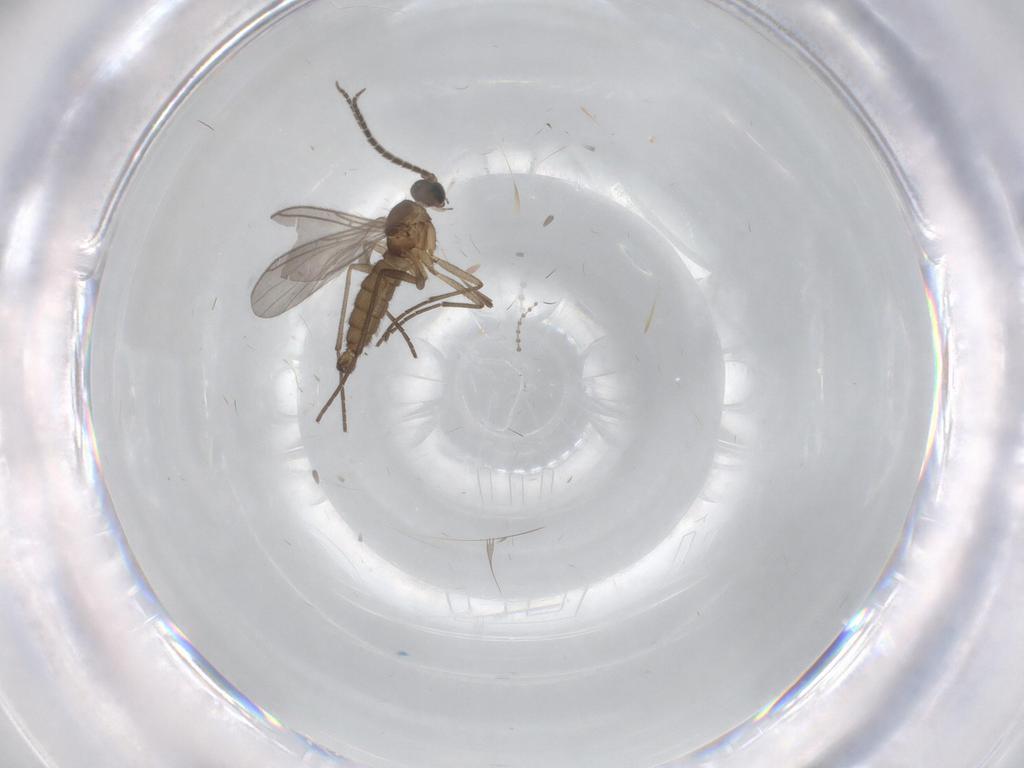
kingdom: Animalia
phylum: Arthropoda
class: Insecta
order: Diptera
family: Sciaridae
